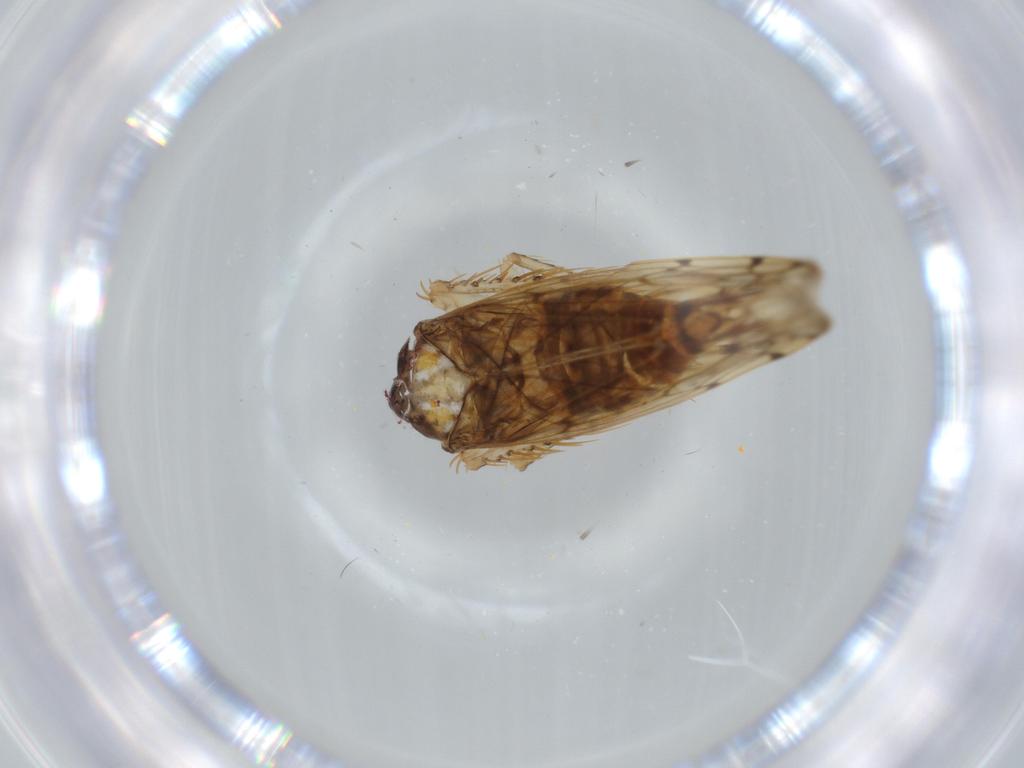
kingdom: Animalia
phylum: Arthropoda
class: Insecta
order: Hemiptera
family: Cicadellidae
